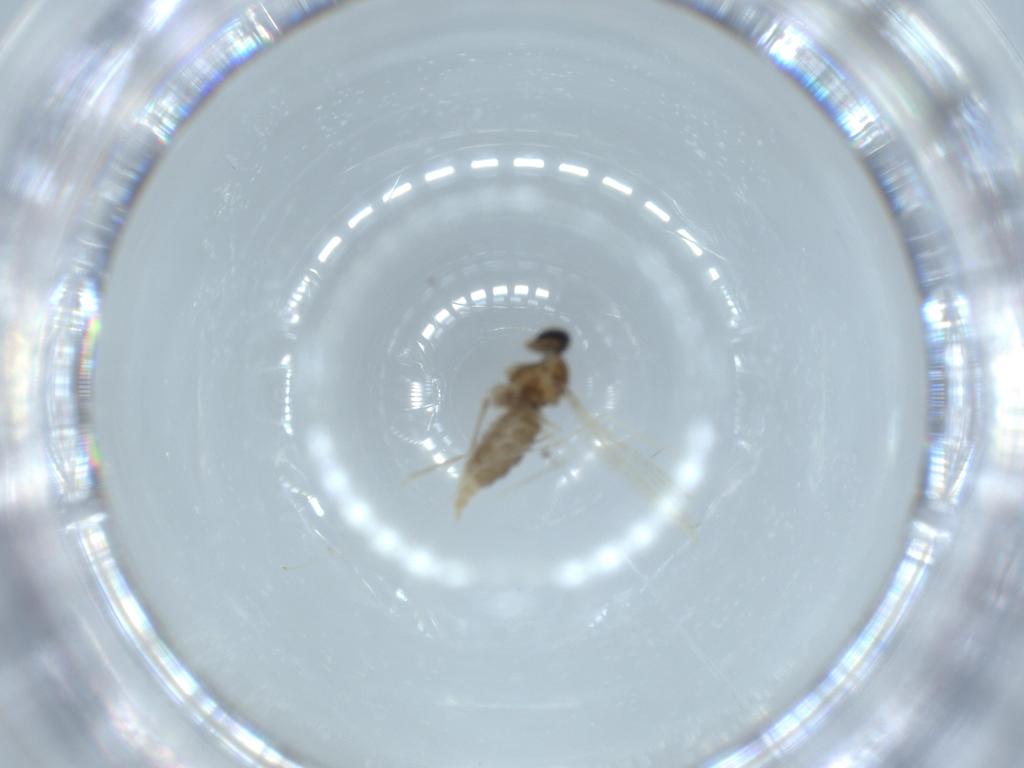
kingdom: Animalia
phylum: Arthropoda
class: Insecta
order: Diptera
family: Cecidomyiidae
